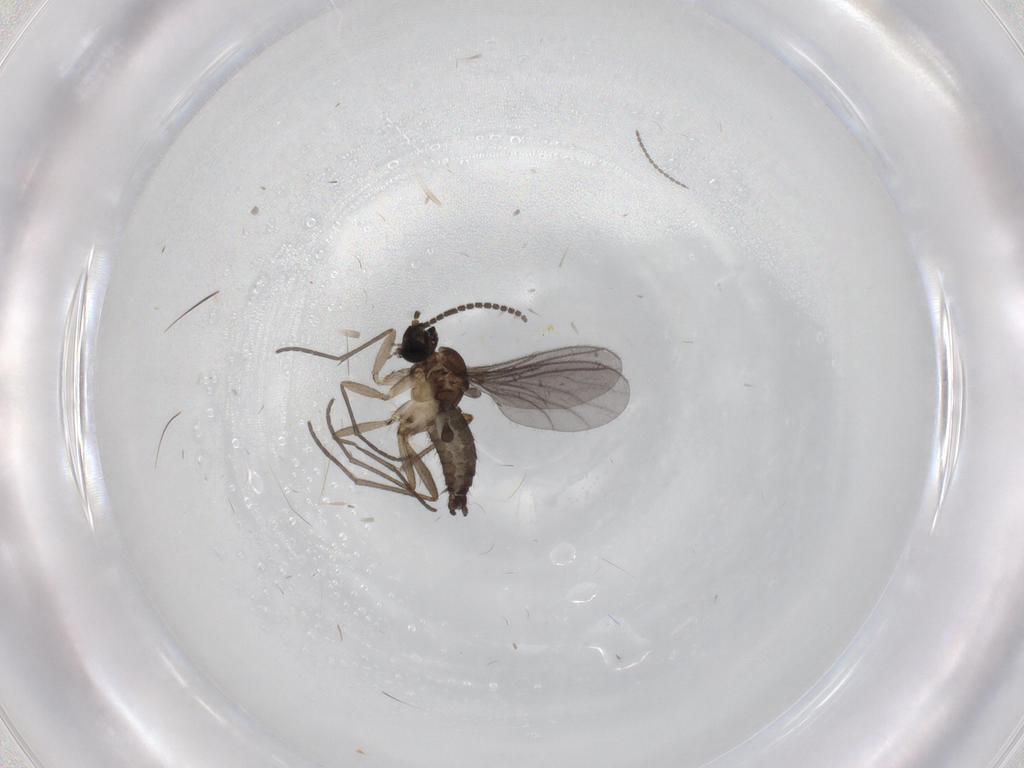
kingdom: Animalia
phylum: Arthropoda
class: Insecta
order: Diptera
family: Sciaridae
